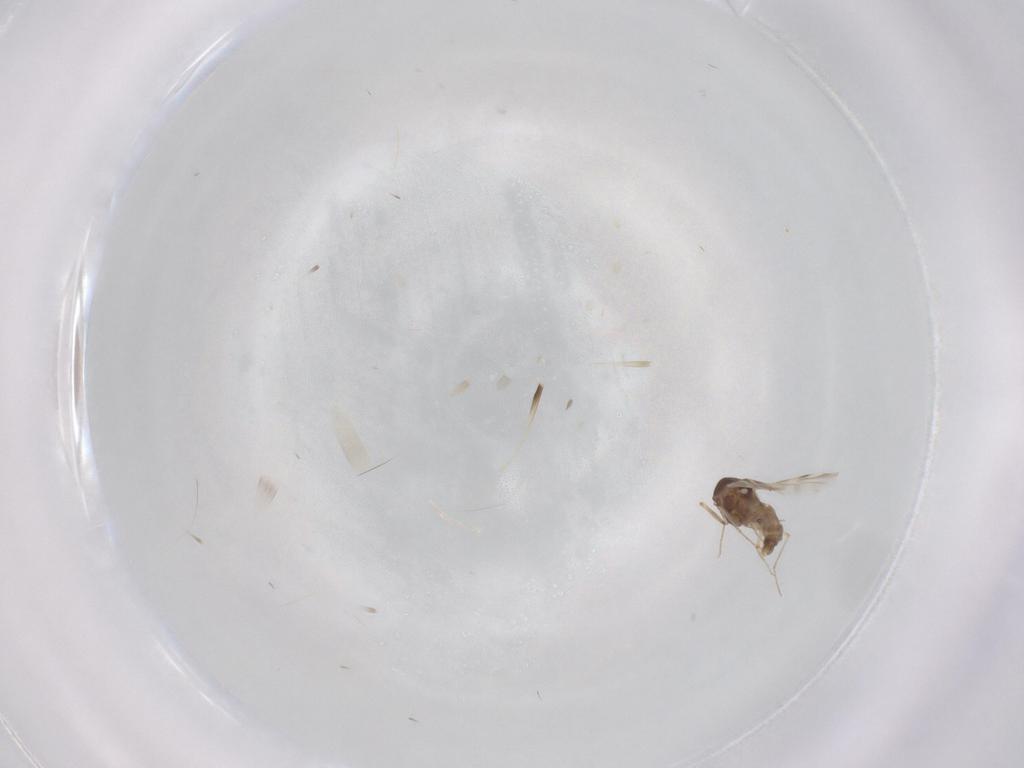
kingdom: Animalia
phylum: Arthropoda
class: Insecta
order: Diptera
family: Ceratopogonidae
